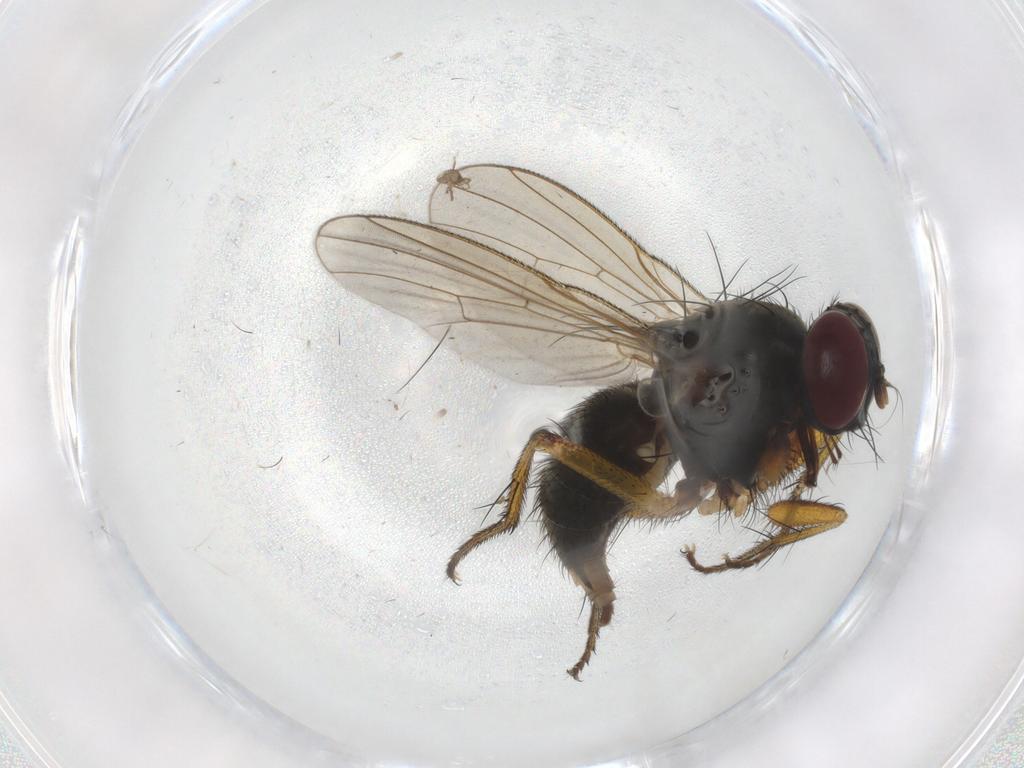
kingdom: Animalia
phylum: Arthropoda
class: Insecta
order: Diptera
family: Muscidae
